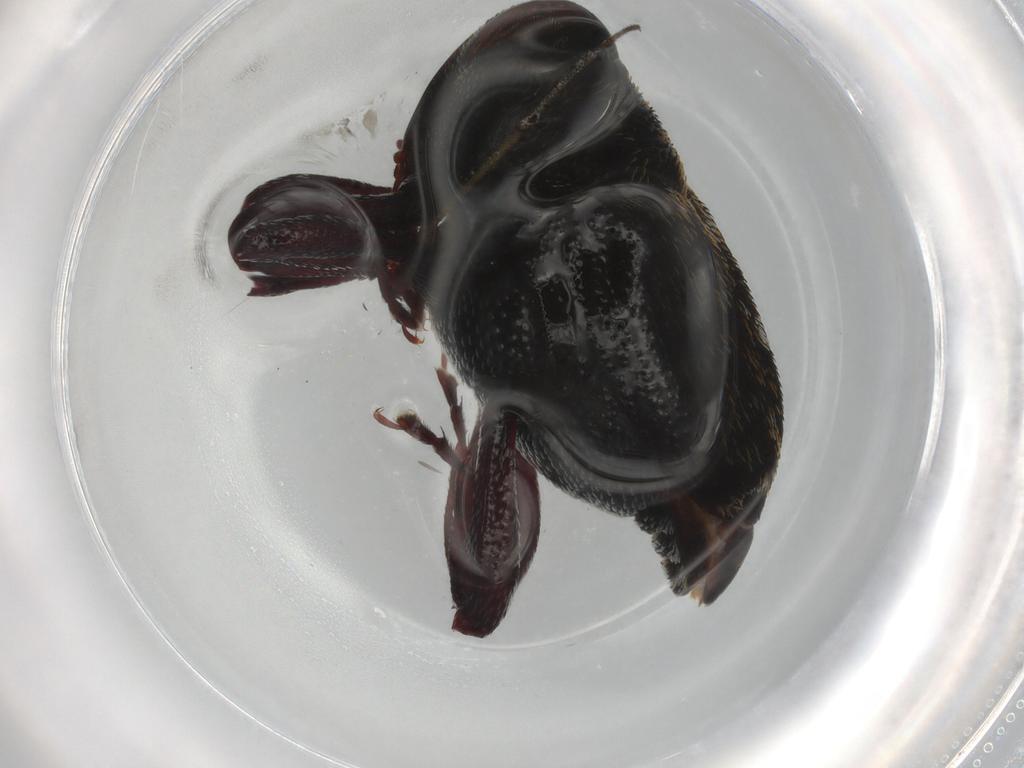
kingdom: Animalia
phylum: Arthropoda
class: Insecta
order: Coleoptera
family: Curculionidae
